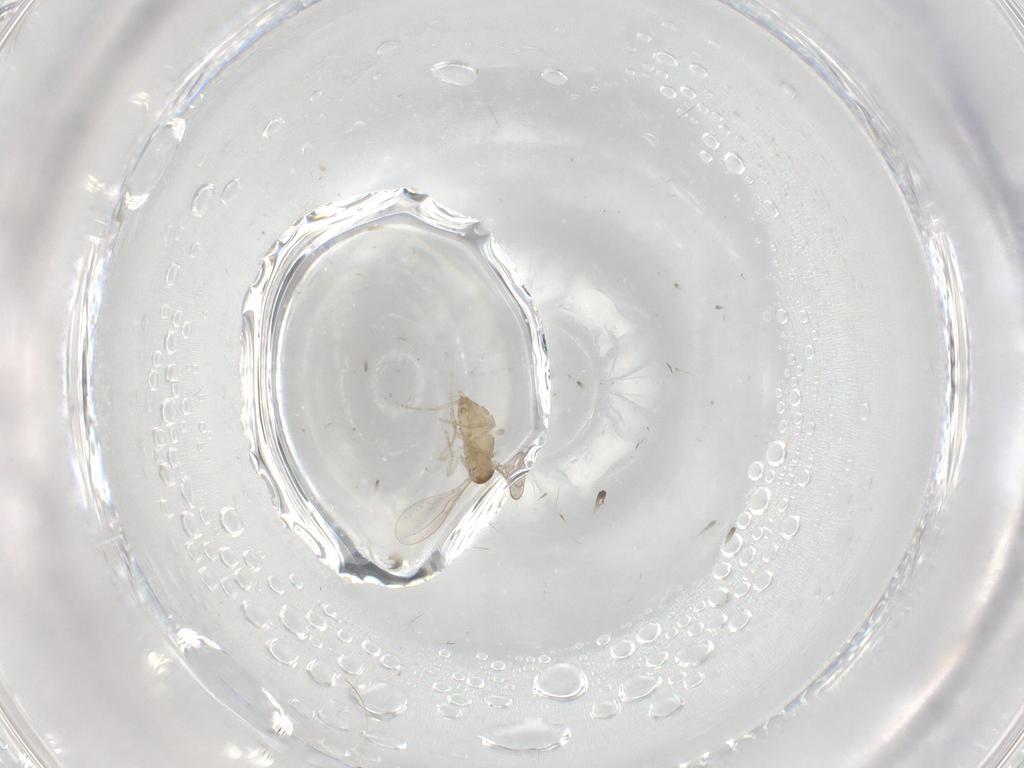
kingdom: Animalia
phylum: Arthropoda
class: Insecta
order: Diptera
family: Cecidomyiidae
